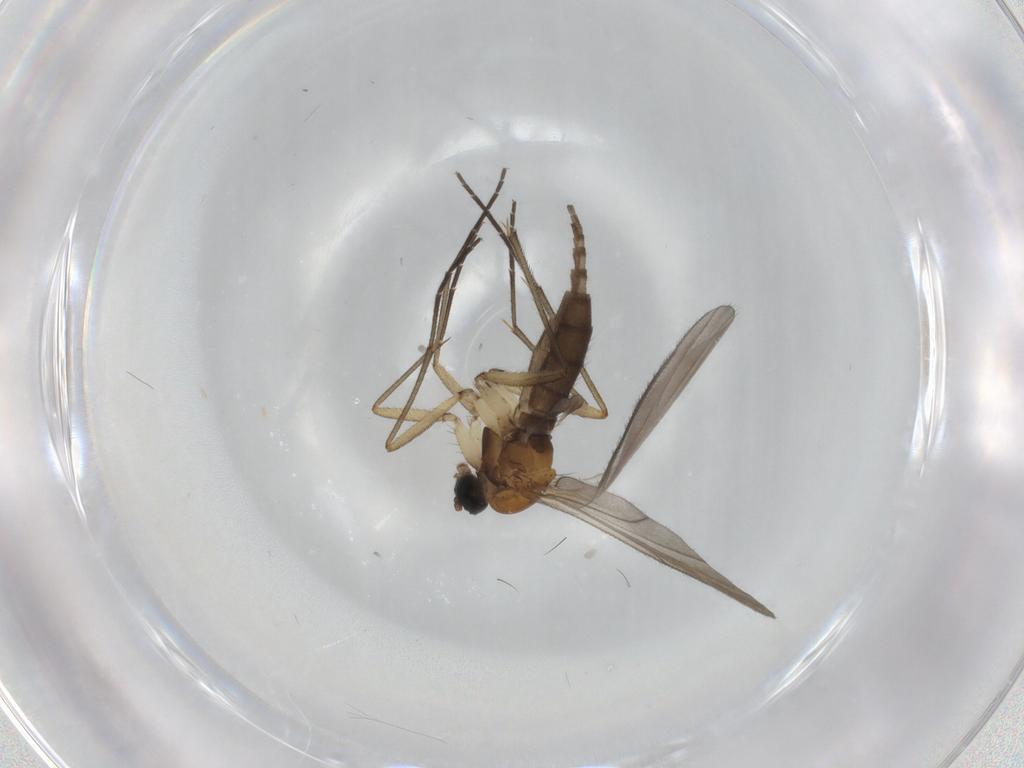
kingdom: Animalia
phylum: Arthropoda
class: Insecta
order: Diptera
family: Sciaridae
